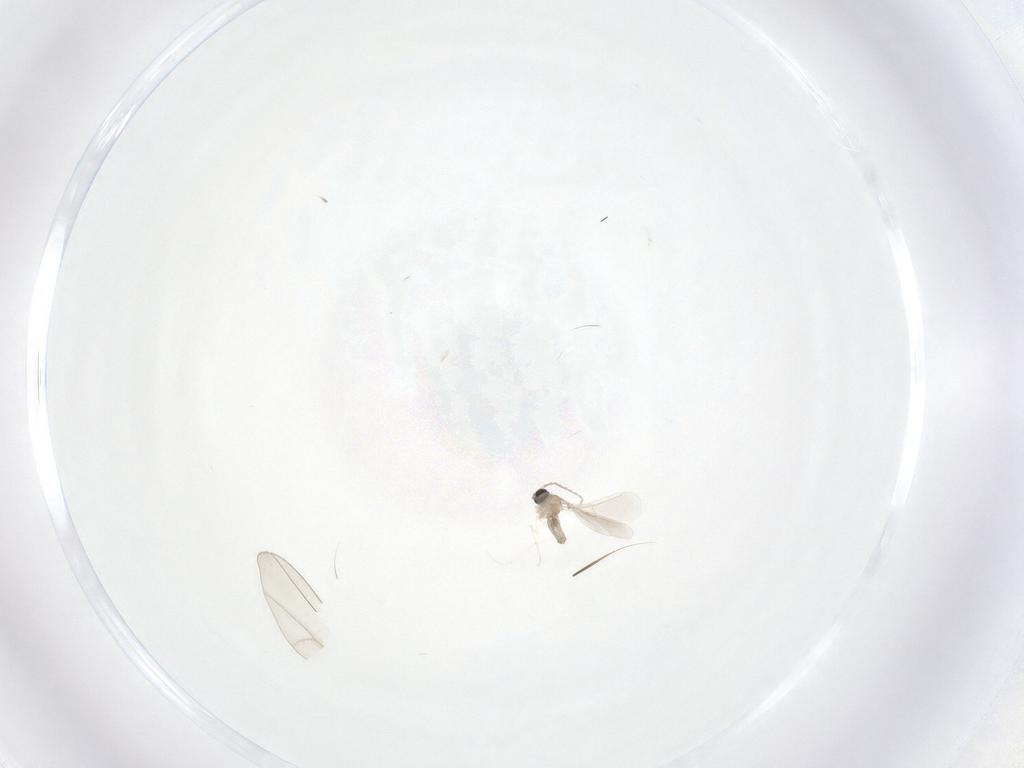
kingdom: Animalia
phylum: Arthropoda
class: Insecta
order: Diptera
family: Cecidomyiidae
